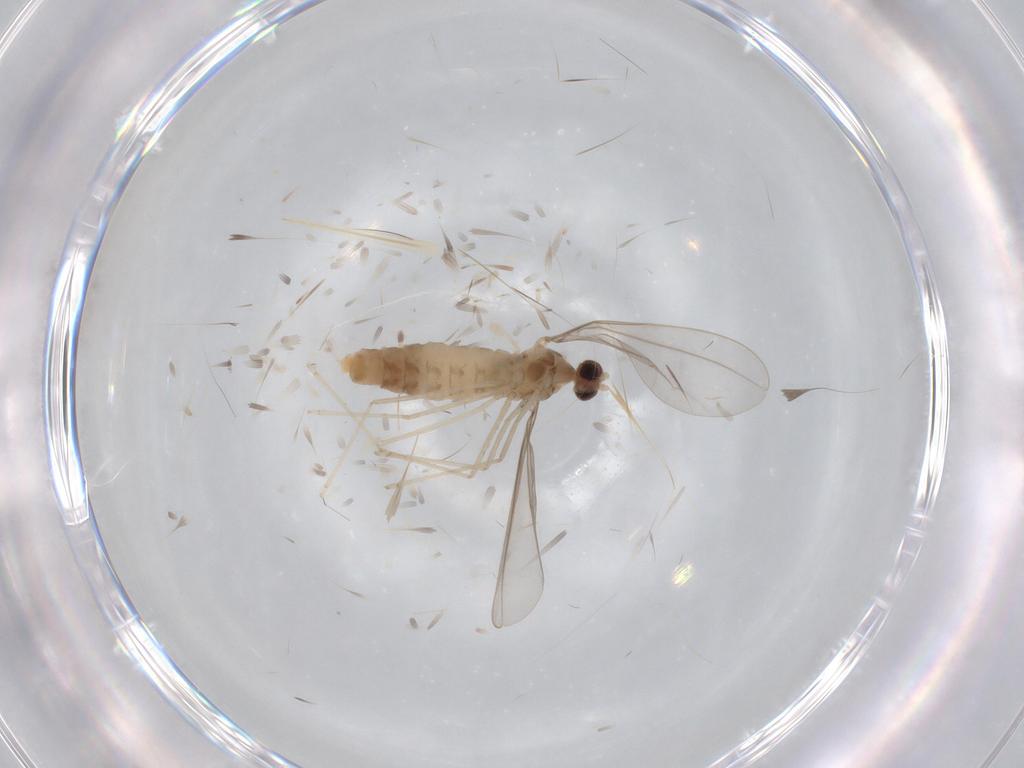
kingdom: Animalia
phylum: Arthropoda
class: Insecta
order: Diptera
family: Cecidomyiidae
